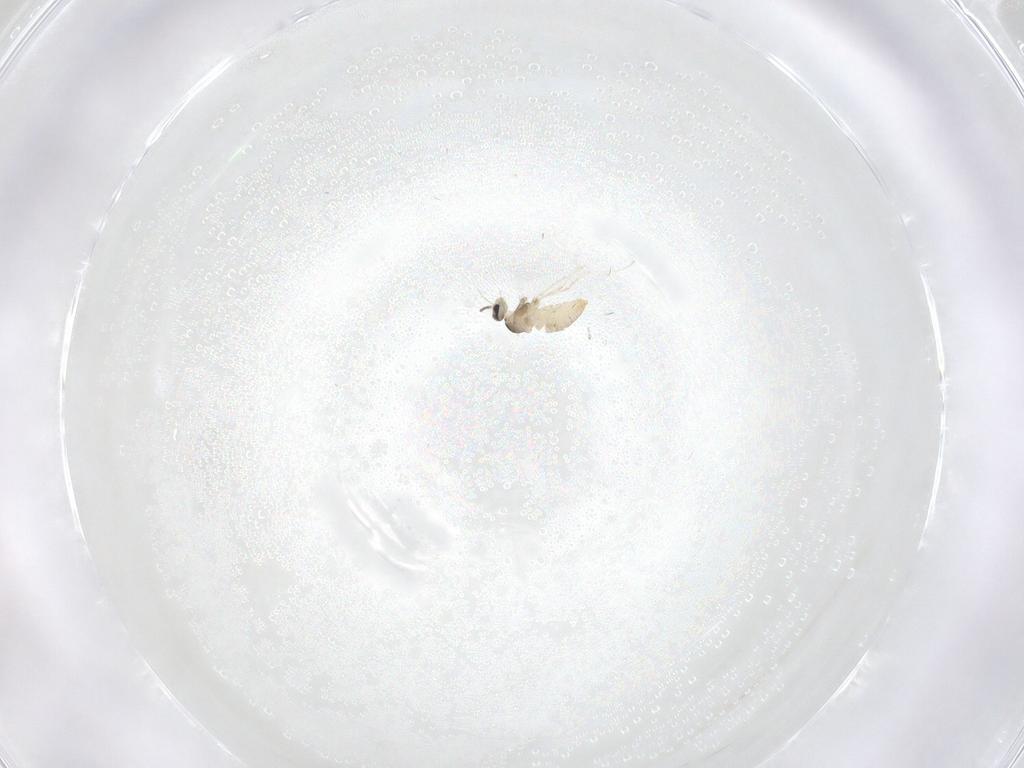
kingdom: Animalia
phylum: Arthropoda
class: Insecta
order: Diptera
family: Cecidomyiidae
